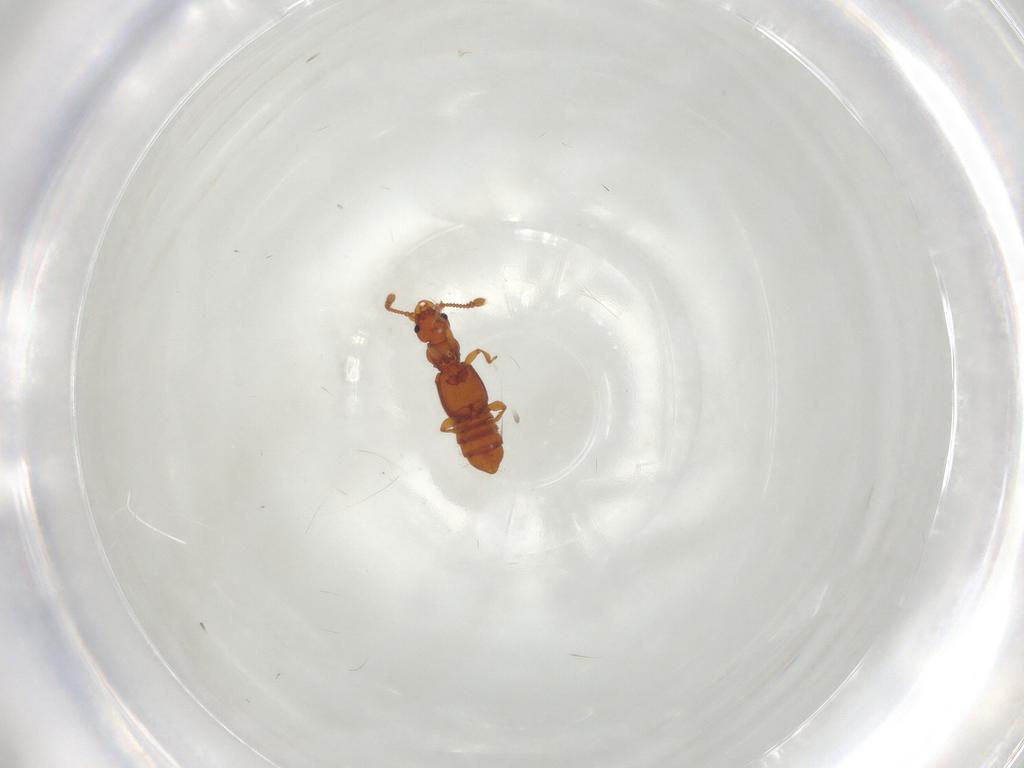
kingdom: Animalia
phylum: Arthropoda
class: Insecta
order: Coleoptera
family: Staphylinidae
